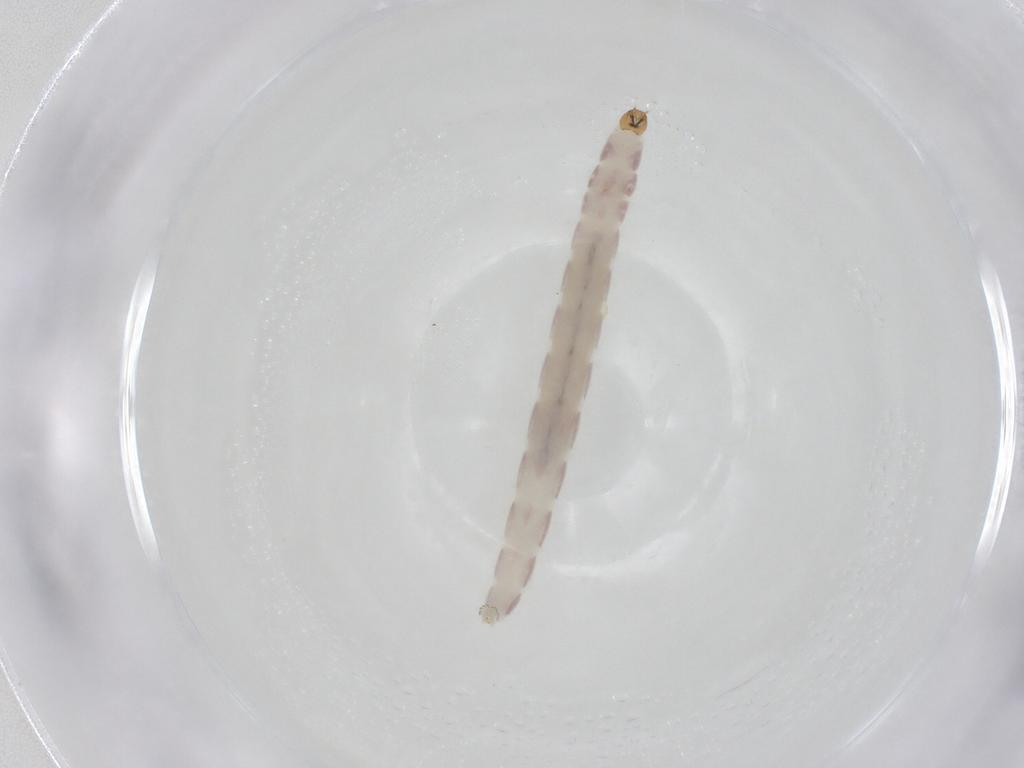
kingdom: Animalia
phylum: Arthropoda
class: Insecta
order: Diptera
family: Chironomidae
